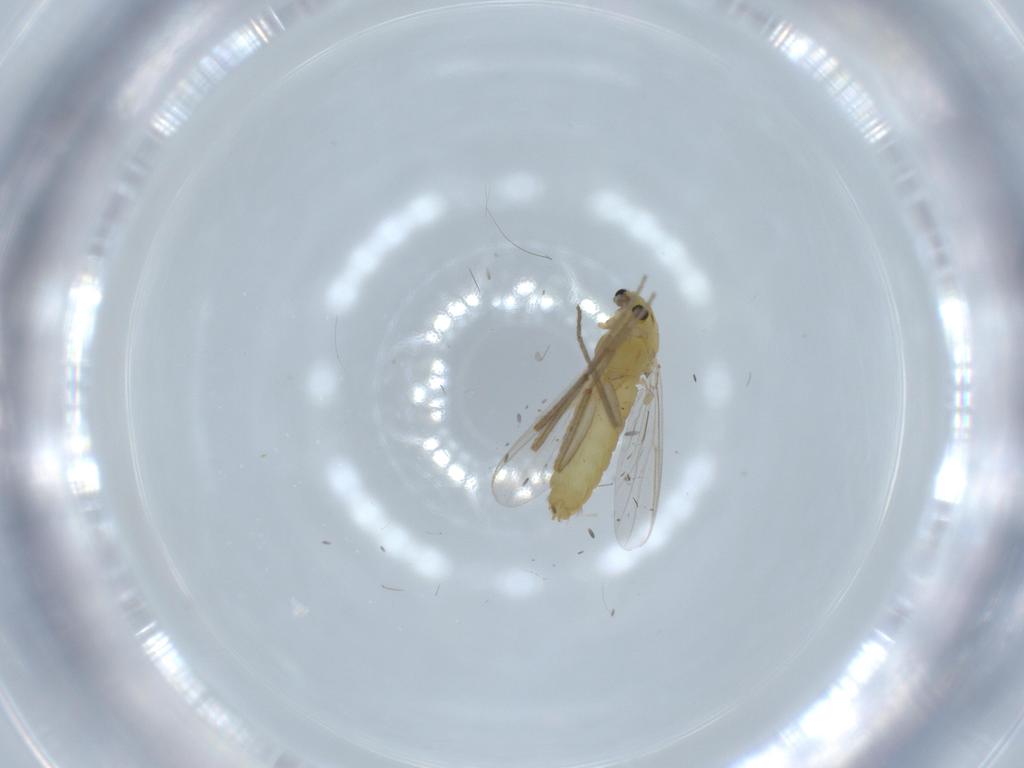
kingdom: Animalia
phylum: Arthropoda
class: Insecta
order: Diptera
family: Chironomidae
